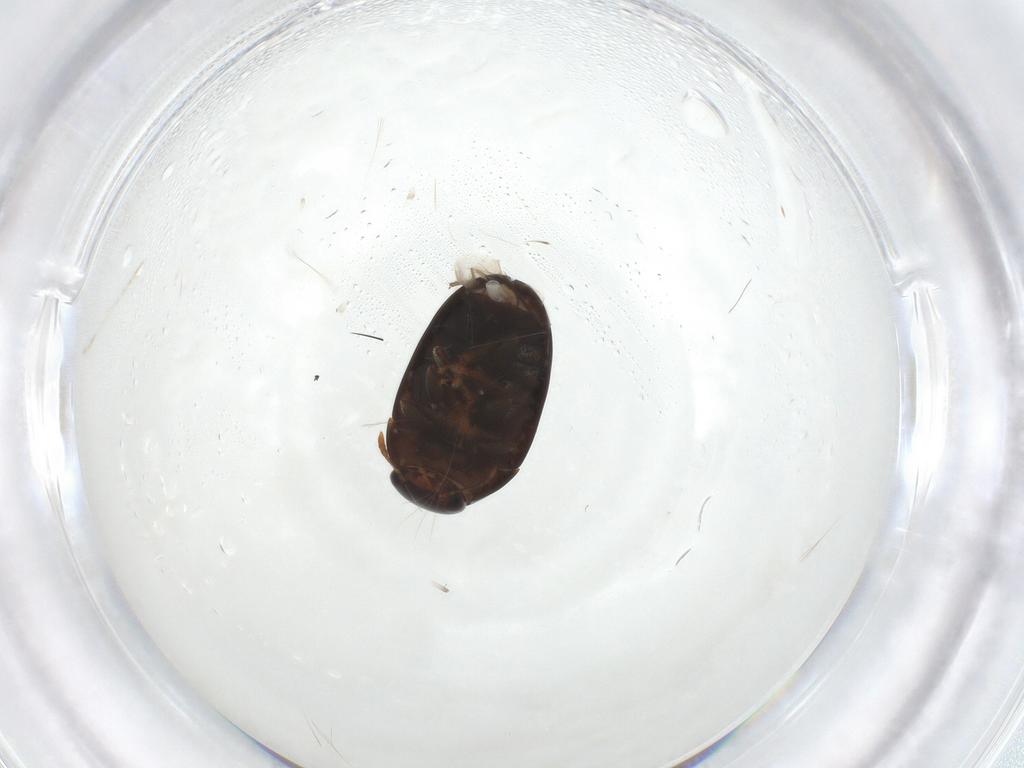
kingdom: Animalia
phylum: Arthropoda
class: Insecta
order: Coleoptera
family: Phalacridae
